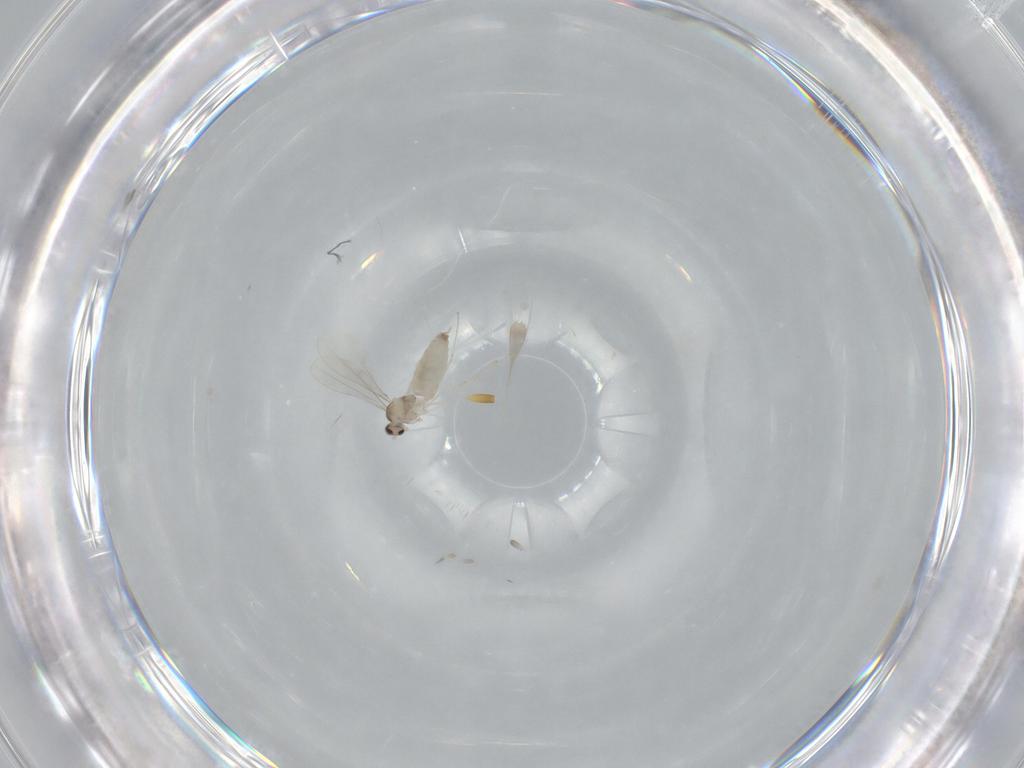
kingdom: Animalia
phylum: Arthropoda
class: Insecta
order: Diptera
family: Cecidomyiidae
